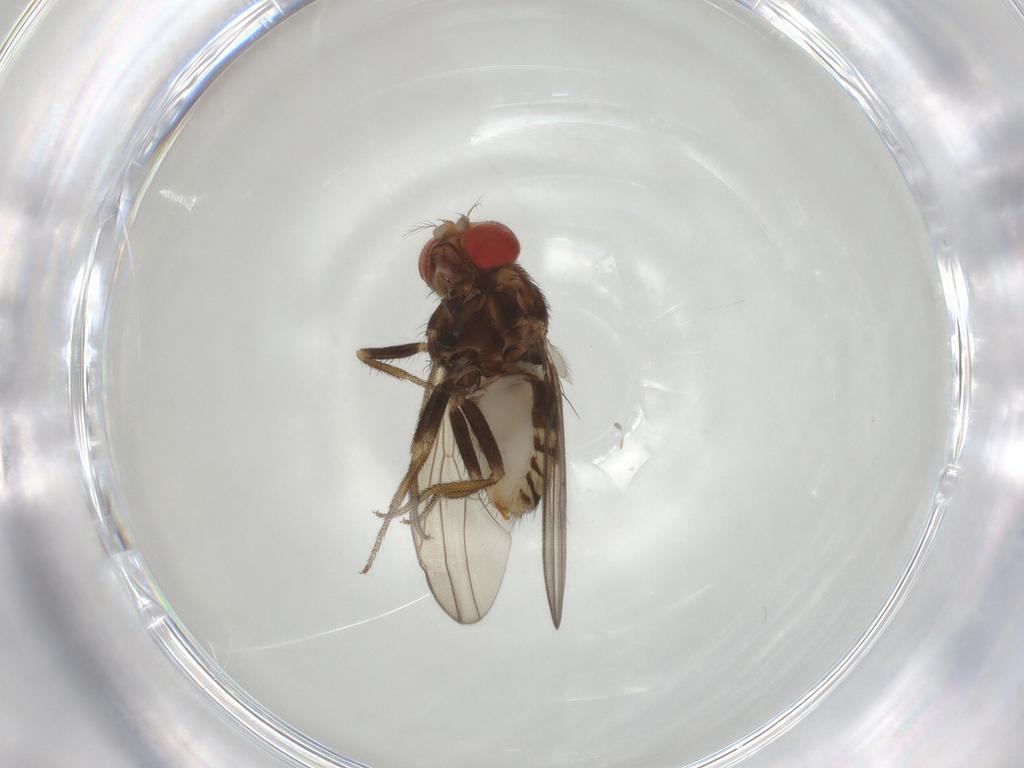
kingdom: Animalia
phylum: Arthropoda
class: Insecta
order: Diptera
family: Drosophilidae
